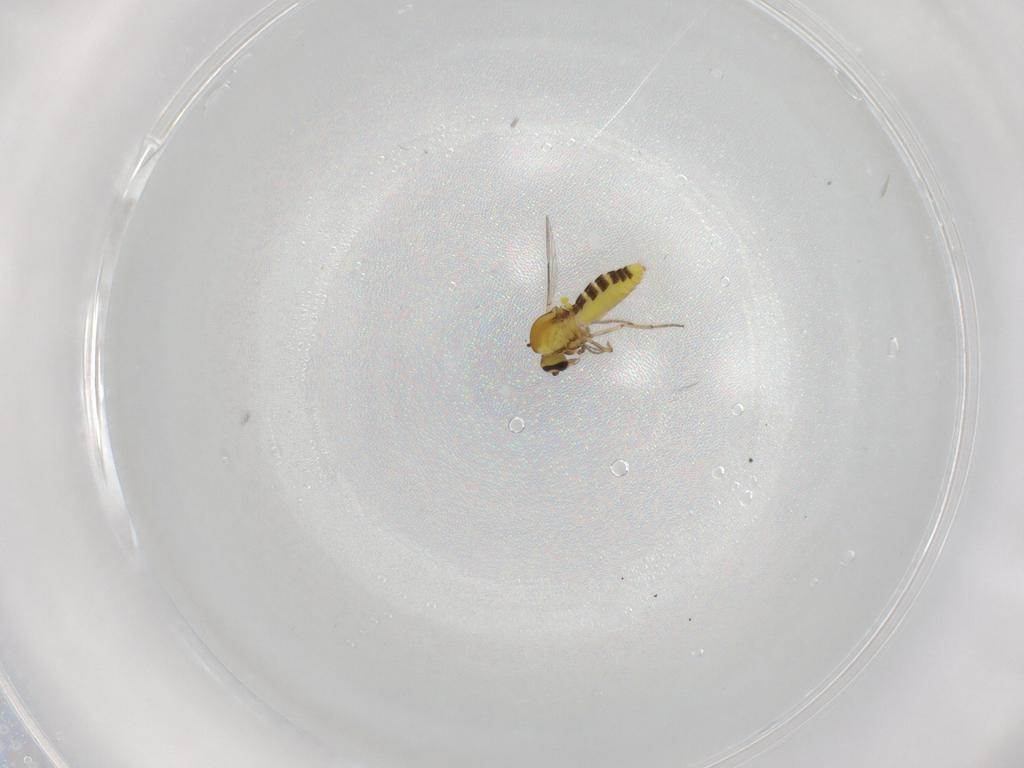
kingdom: Animalia
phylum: Arthropoda
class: Insecta
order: Diptera
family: Ceratopogonidae
